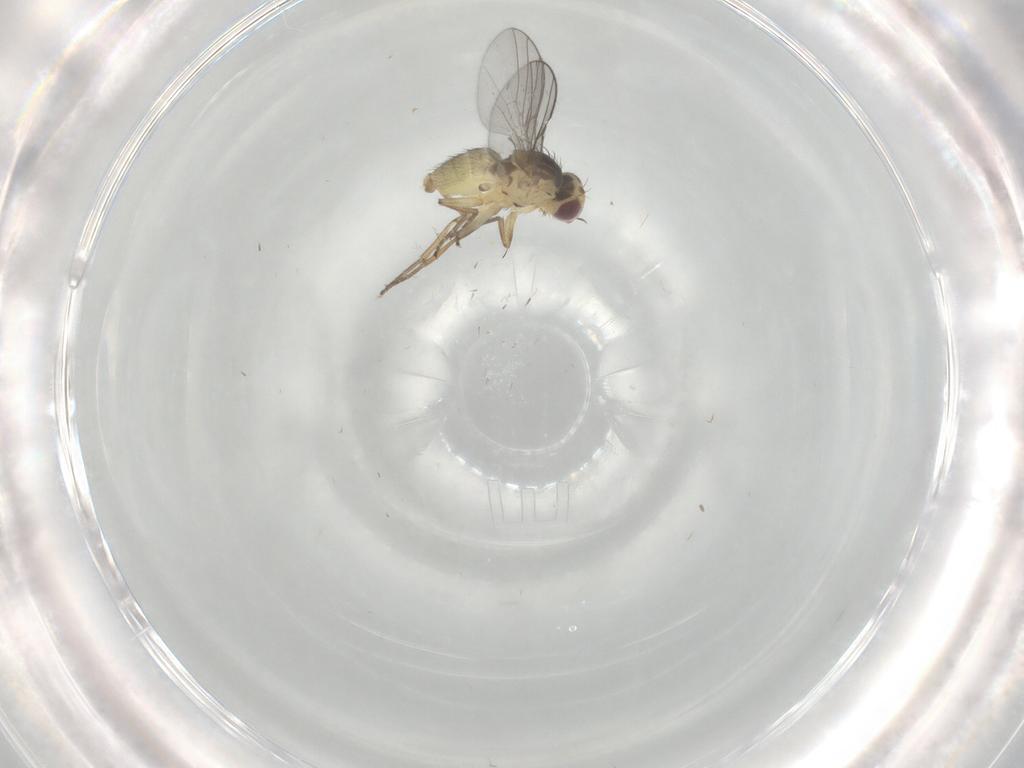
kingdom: Animalia
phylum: Arthropoda
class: Insecta
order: Diptera
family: Agromyzidae
